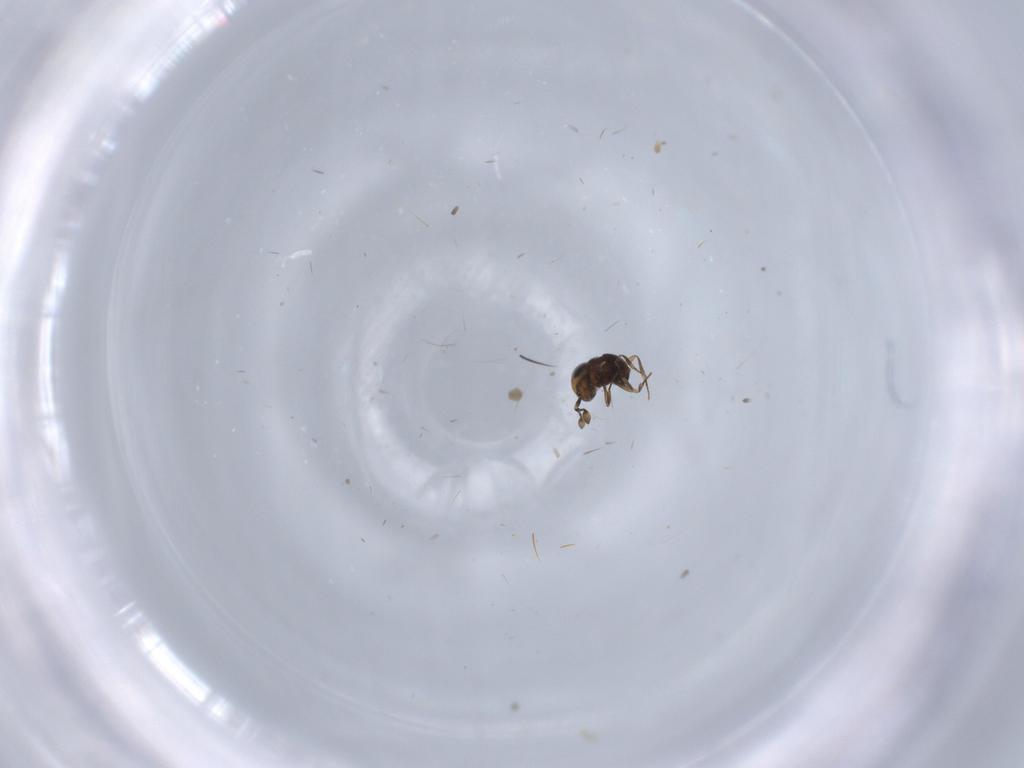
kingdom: Animalia
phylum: Arthropoda
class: Insecta
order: Hymenoptera
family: Scelionidae
